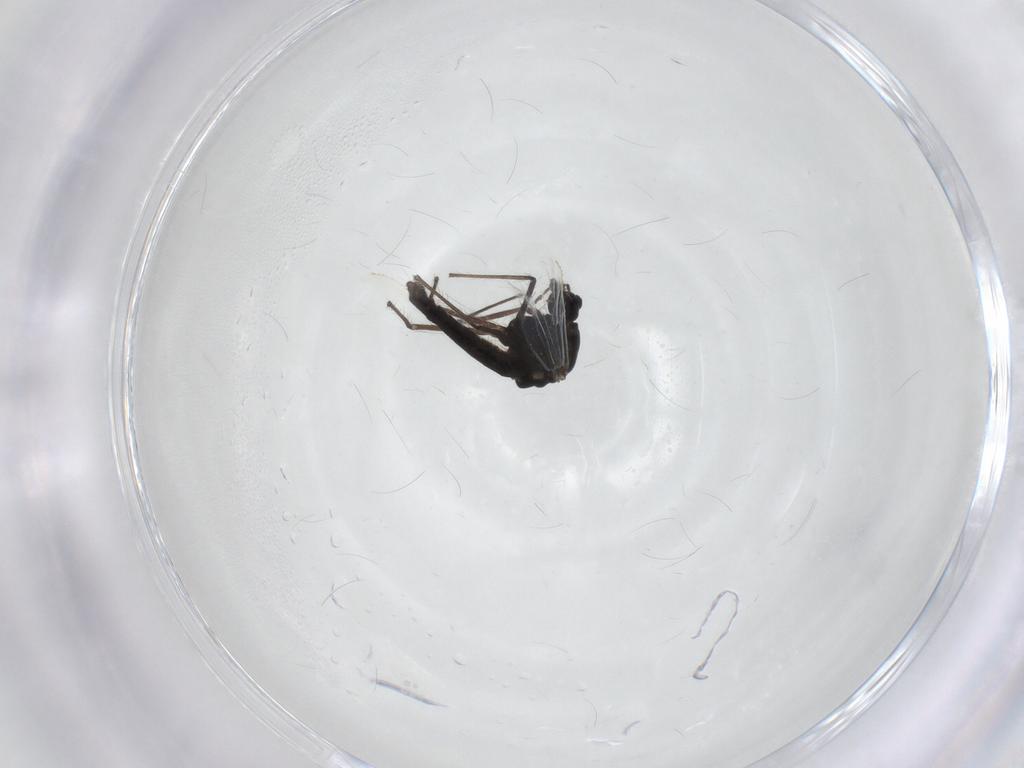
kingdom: Animalia
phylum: Arthropoda
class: Insecta
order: Diptera
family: Chironomidae
